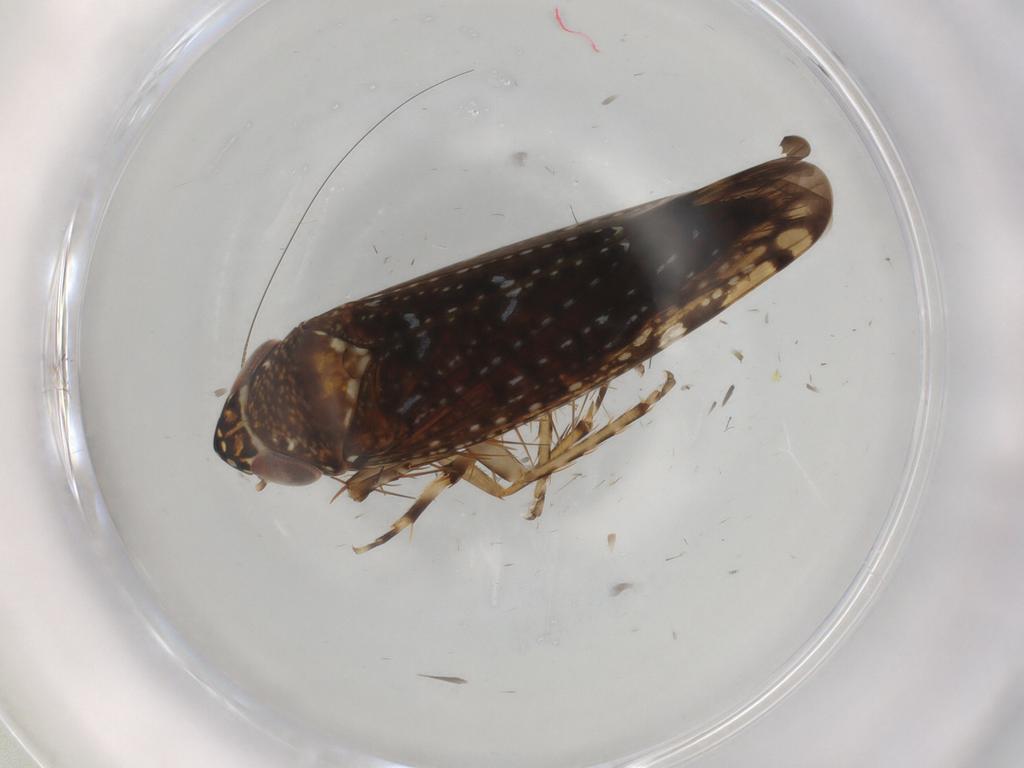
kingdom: Animalia
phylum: Arthropoda
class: Insecta
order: Hemiptera
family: Cicadellidae
